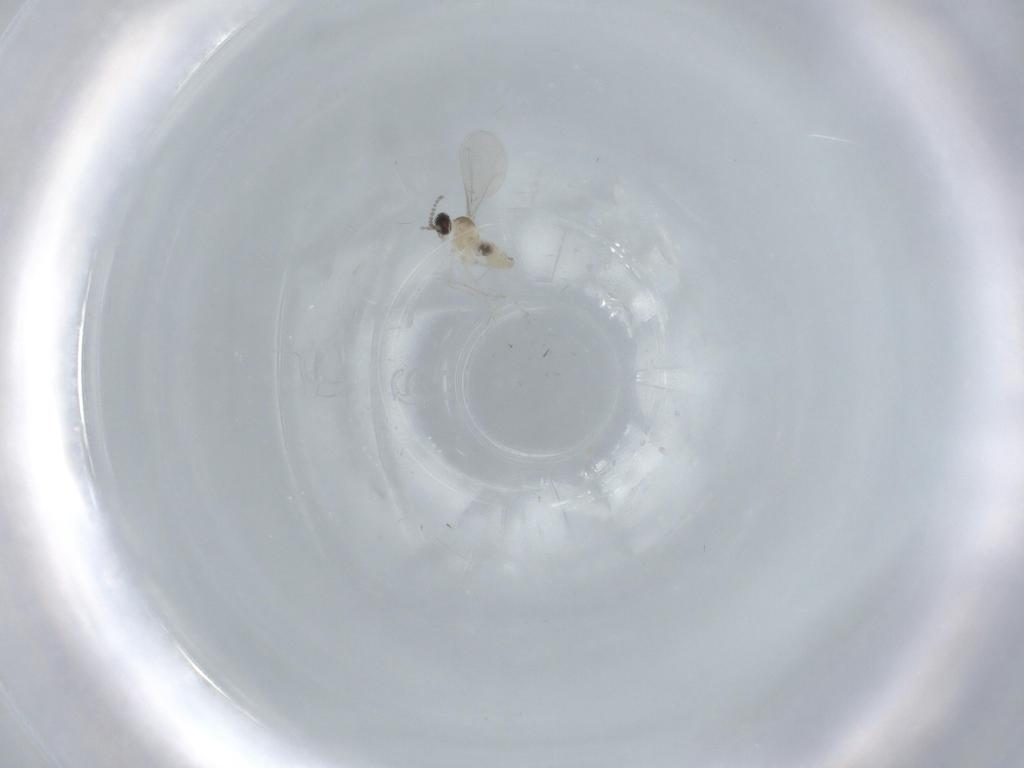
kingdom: Animalia
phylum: Arthropoda
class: Insecta
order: Diptera
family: Cecidomyiidae
